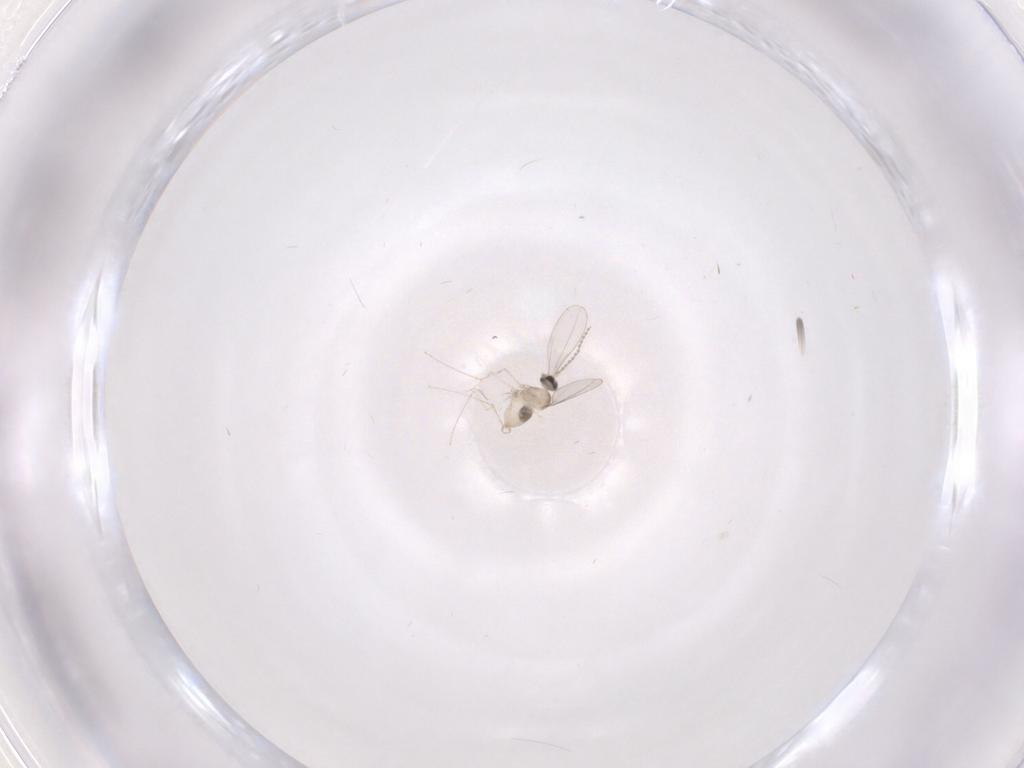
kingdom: Animalia
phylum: Arthropoda
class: Insecta
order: Diptera
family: Cecidomyiidae
